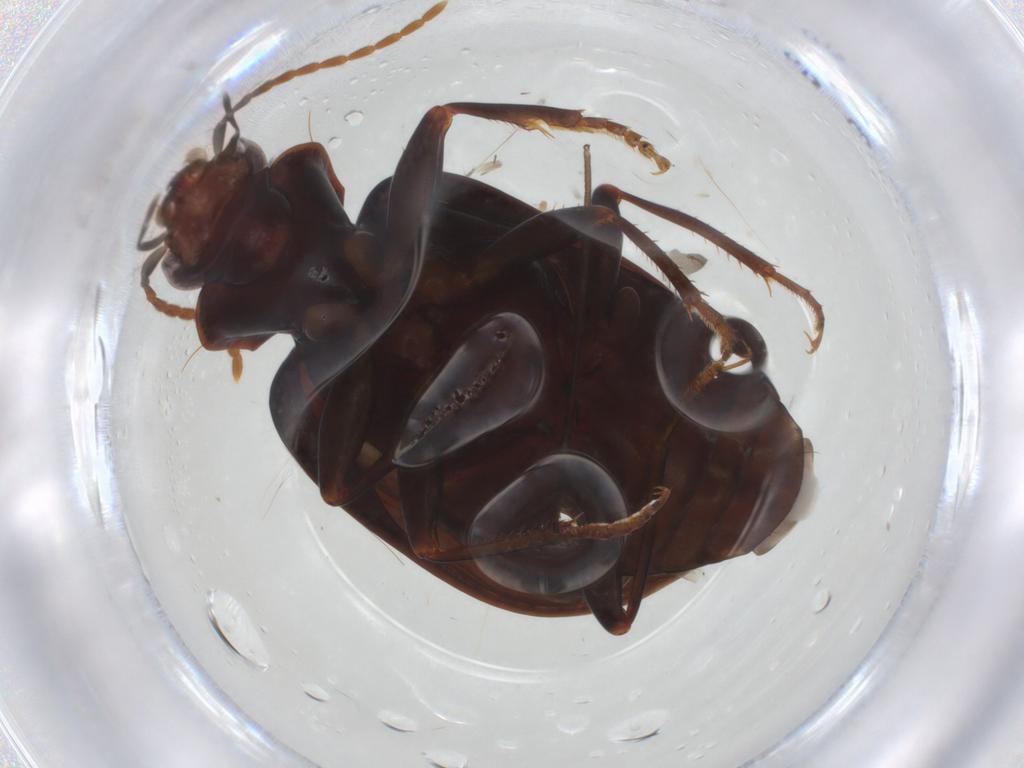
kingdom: Animalia
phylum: Arthropoda
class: Insecta
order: Coleoptera
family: Carabidae
